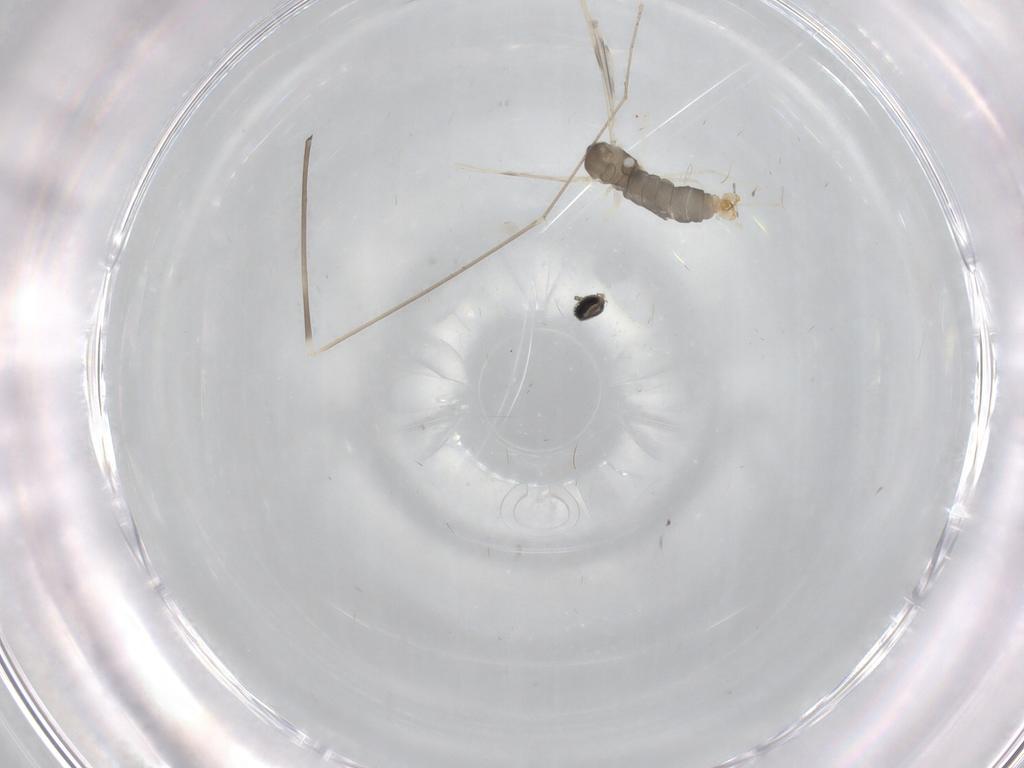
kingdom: Animalia
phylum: Arthropoda
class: Insecta
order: Diptera
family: Limoniidae
